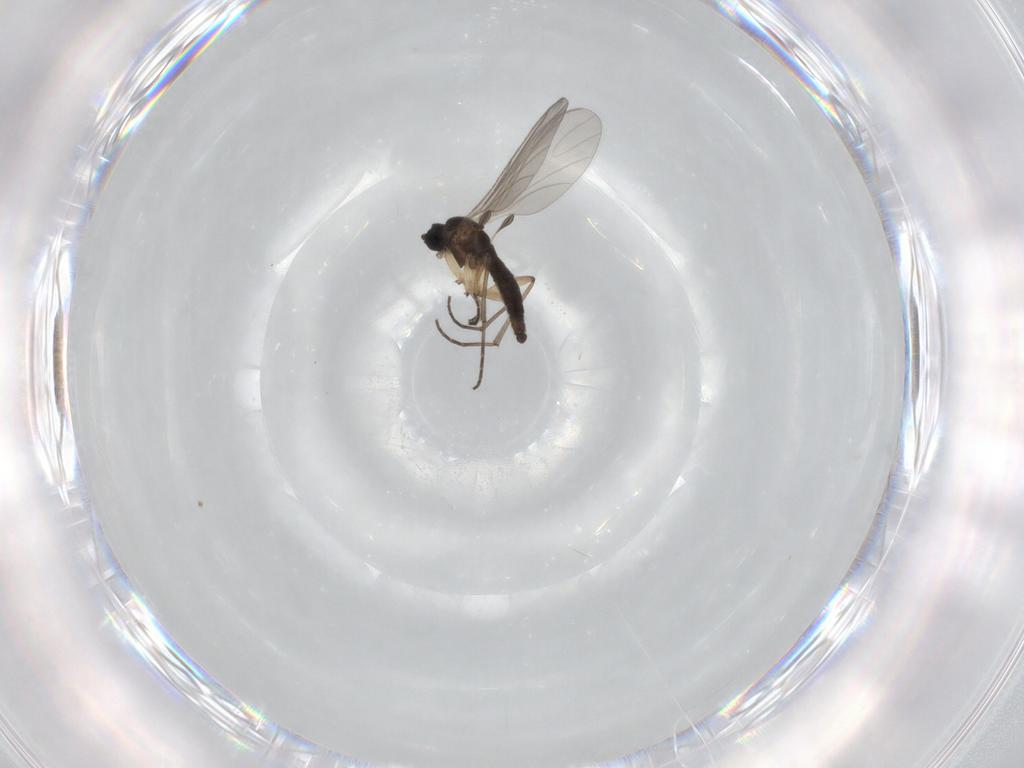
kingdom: Animalia
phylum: Arthropoda
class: Insecta
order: Diptera
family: Sciaridae
